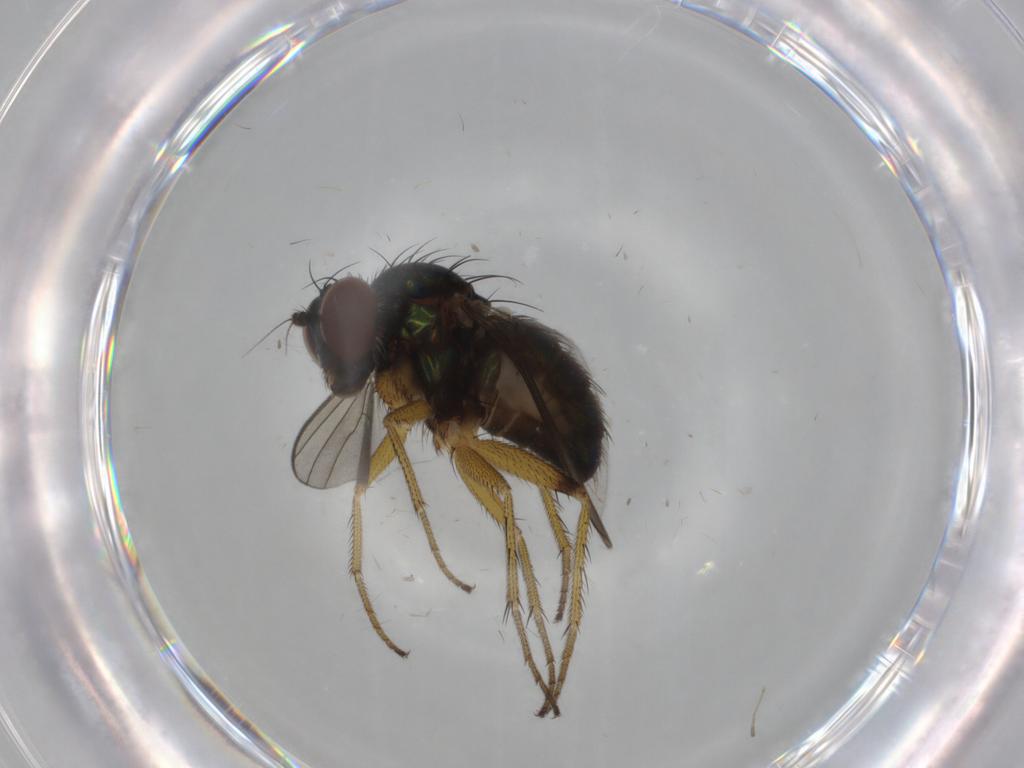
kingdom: Animalia
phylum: Arthropoda
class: Insecta
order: Diptera
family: Dolichopodidae
